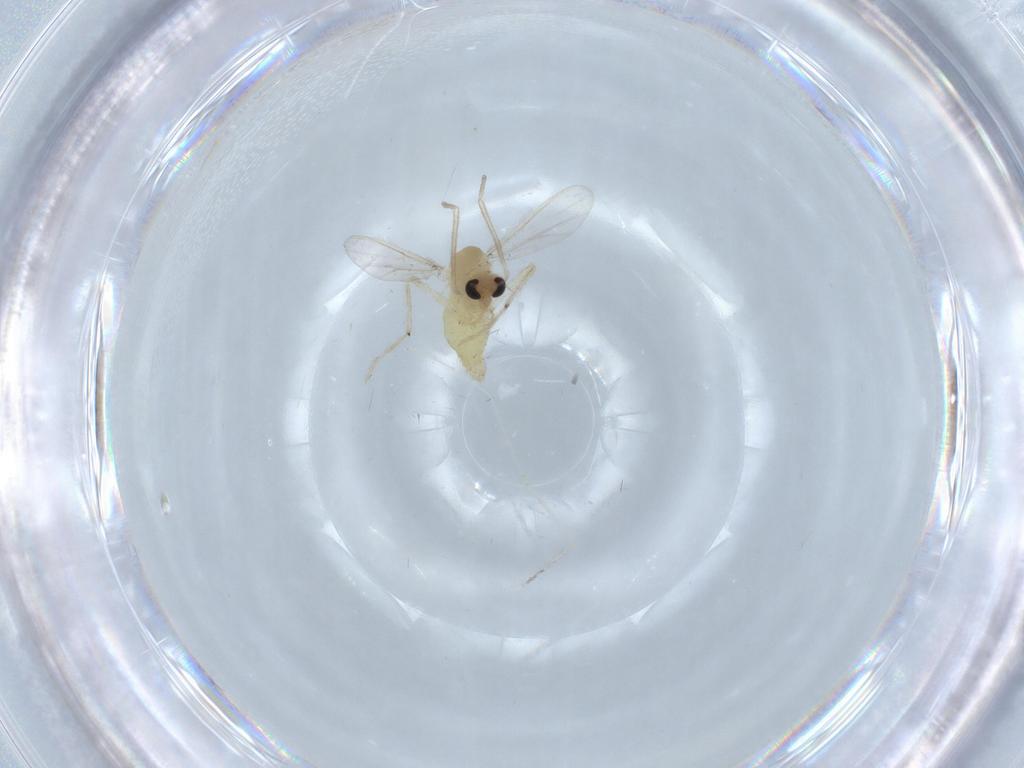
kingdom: Animalia
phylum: Arthropoda
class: Insecta
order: Diptera
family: Chironomidae
